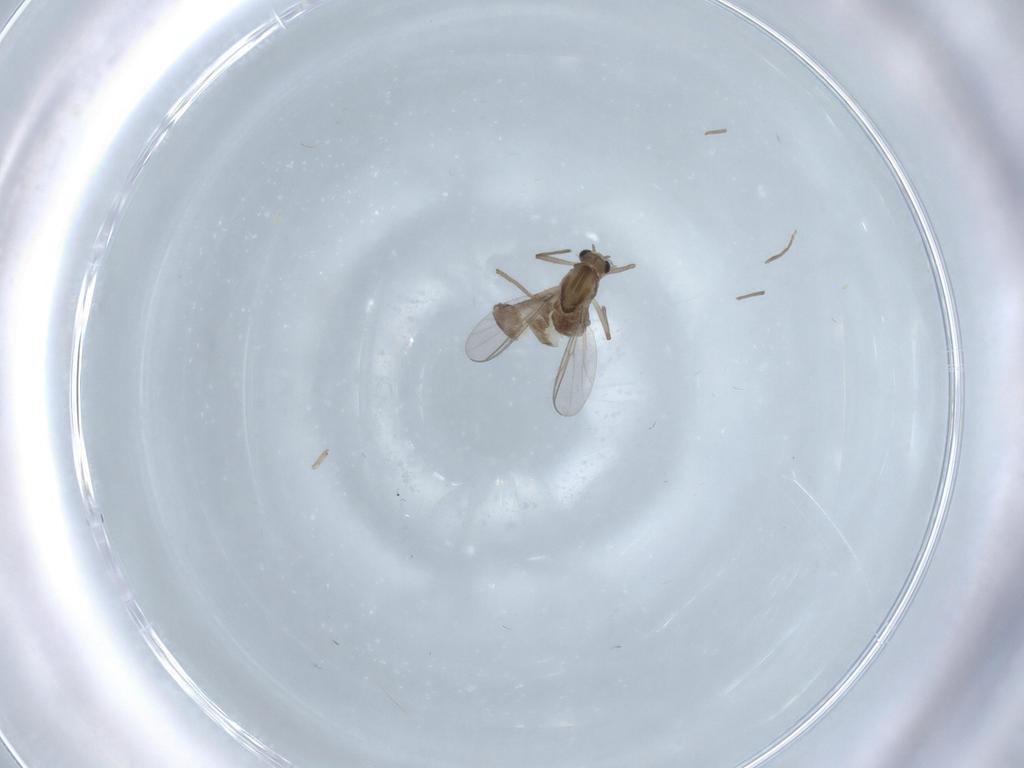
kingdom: Animalia
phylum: Arthropoda
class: Insecta
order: Diptera
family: Chironomidae
